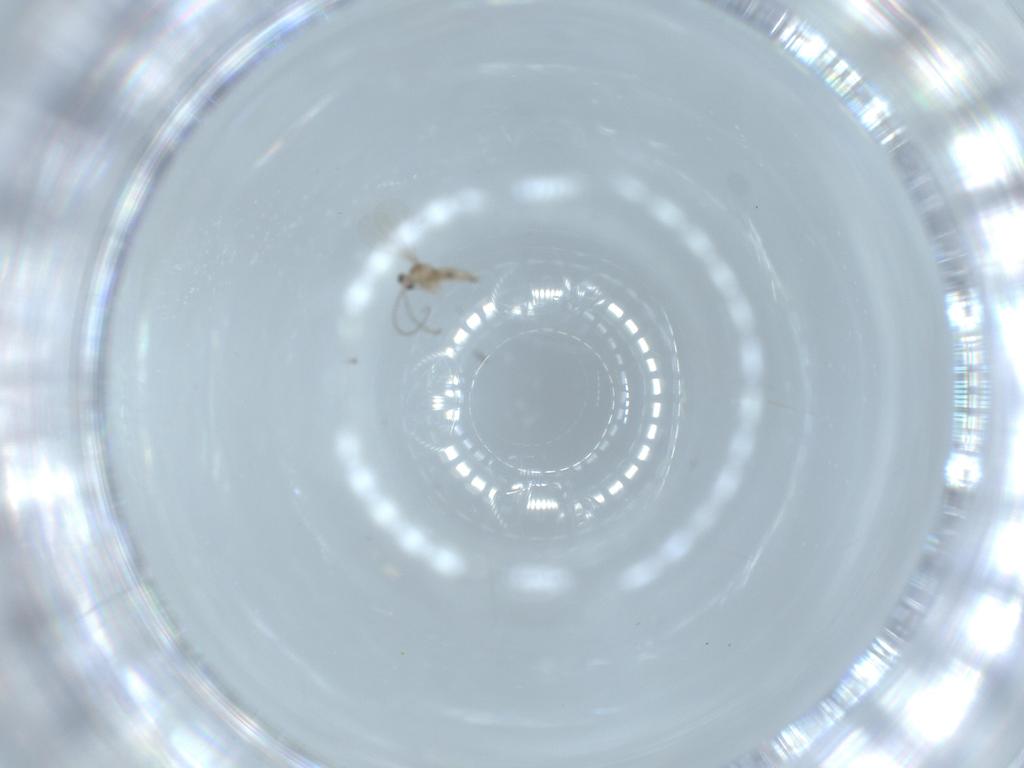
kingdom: Animalia
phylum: Arthropoda
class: Insecta
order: Diptera
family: Cecidomyiidae
